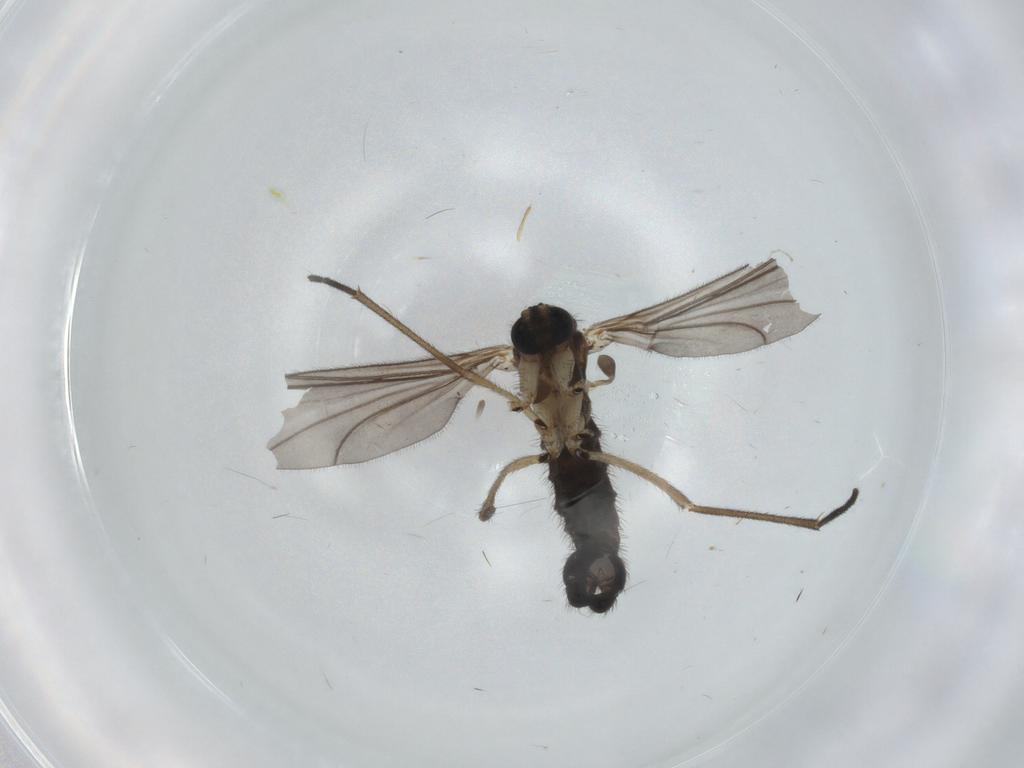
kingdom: Animalia
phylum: Arthropoda
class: Insecta
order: Diptera
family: Sciaridae
